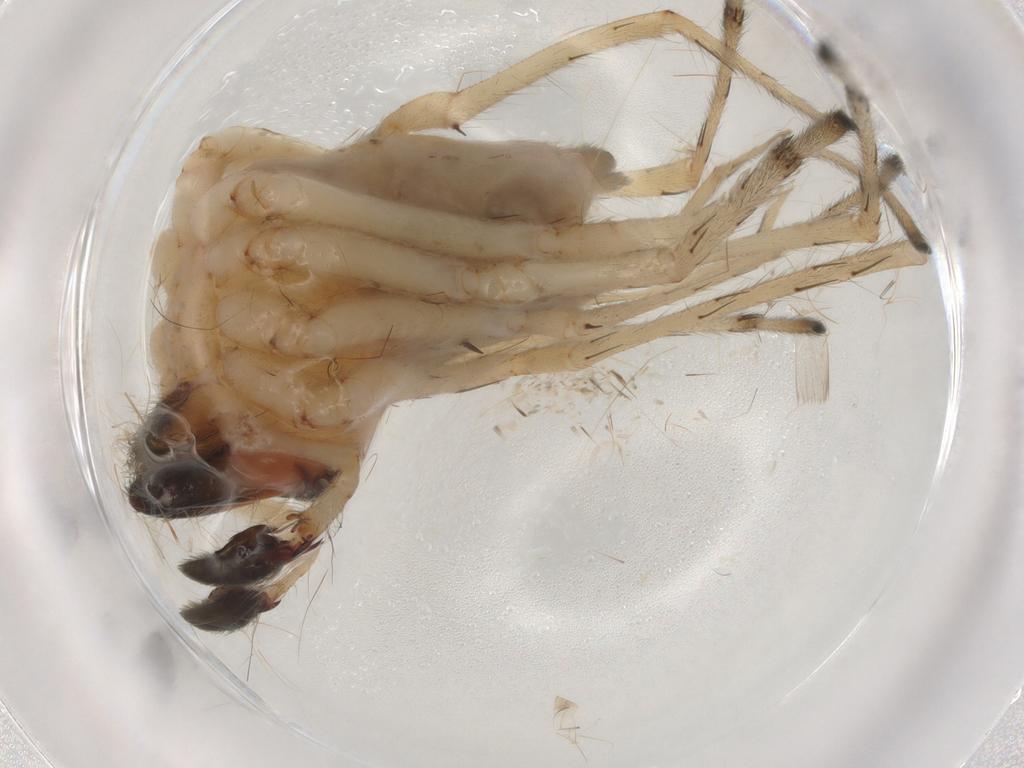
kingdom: Animalia
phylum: Arthropoda
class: Arachnida
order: Araneae
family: Cheiracanthiidae
